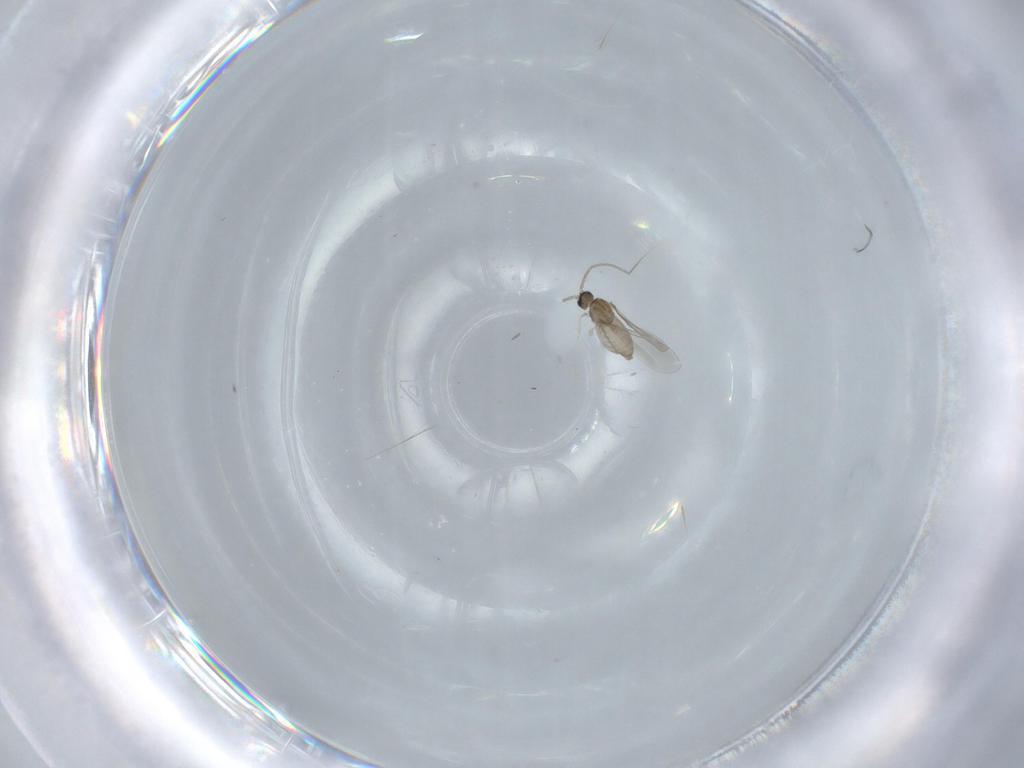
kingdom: Animalia
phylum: Arthropoda
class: Insecta
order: Diptera
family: Cecidomyiidae
